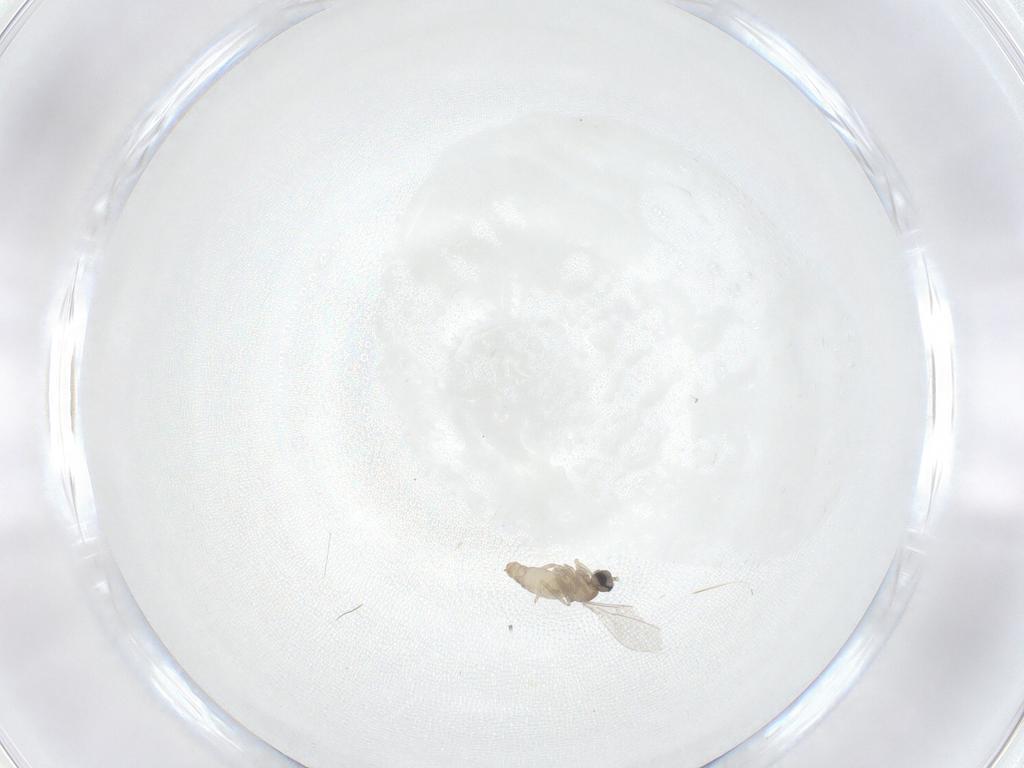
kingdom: Animalia
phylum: Arthropoda
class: Insecta
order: Diptera
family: Cecidomyiidae
